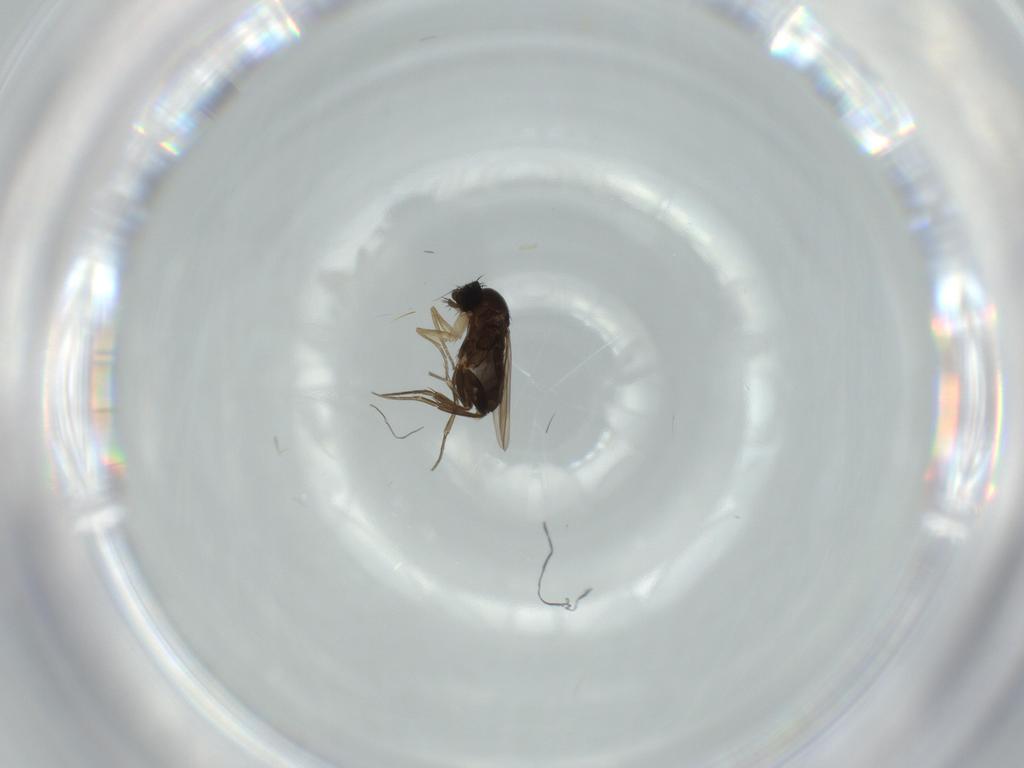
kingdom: Animalia
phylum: Arthropoda
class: Insecta
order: Diptera
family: Phoridae
